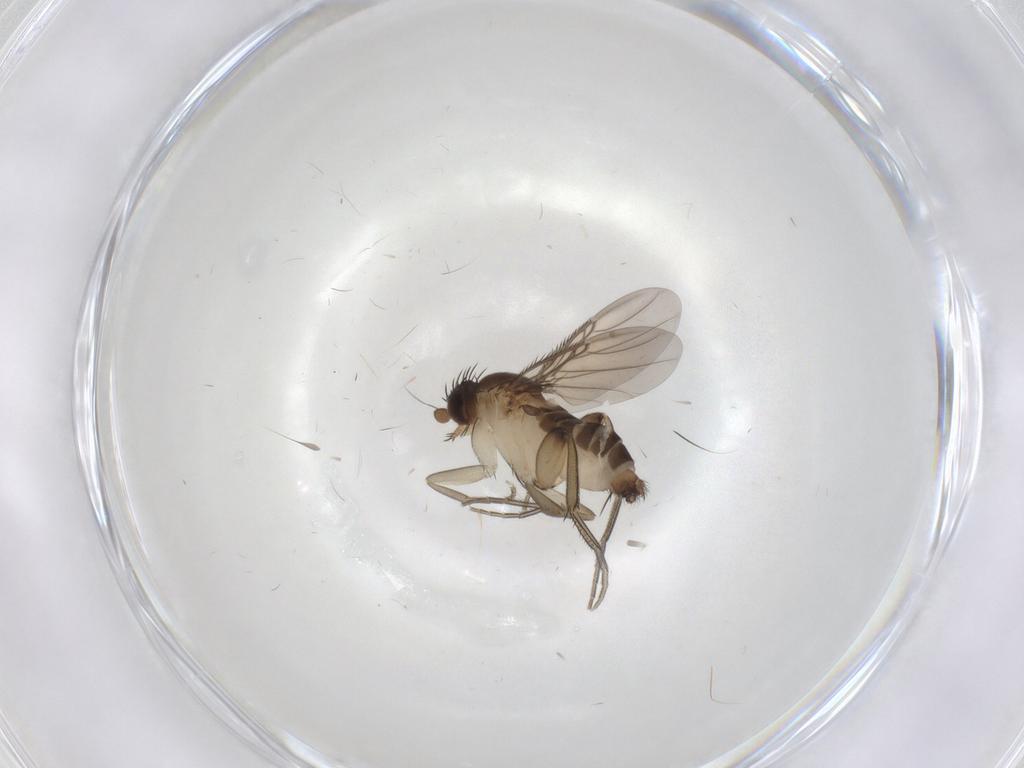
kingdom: Animalia
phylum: Arthropoda
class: Insecta
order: Diptera
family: Phoridae
